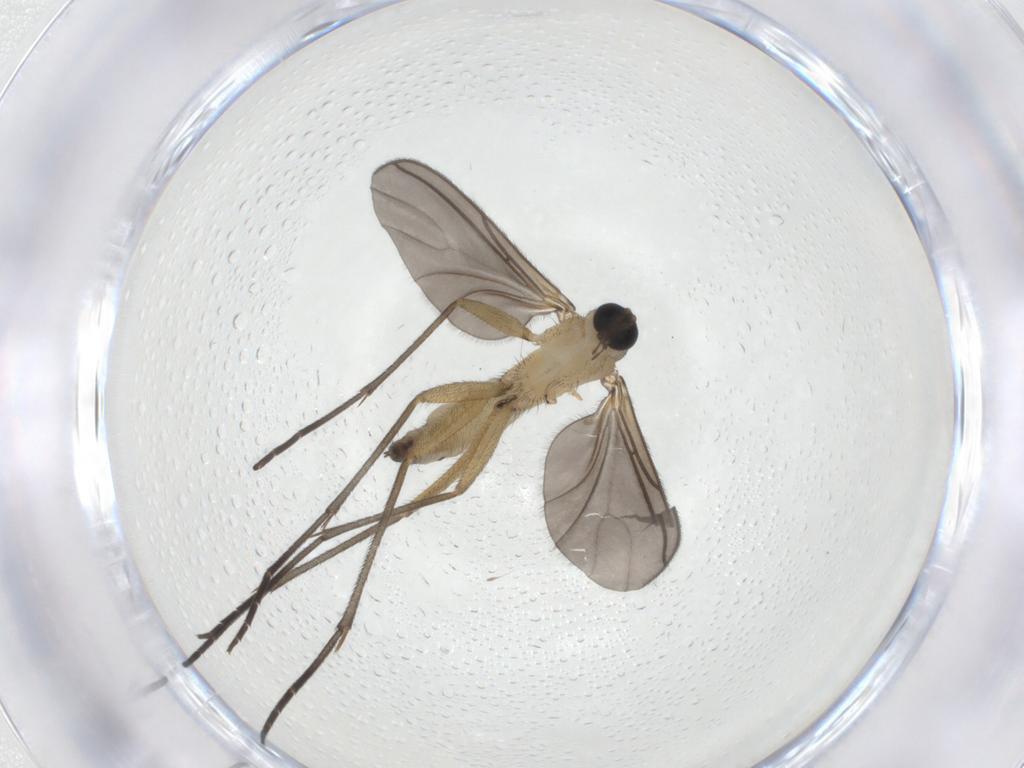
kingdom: Animalia
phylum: Arthropoda
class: Insecta
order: Diptera
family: Sciaridae
